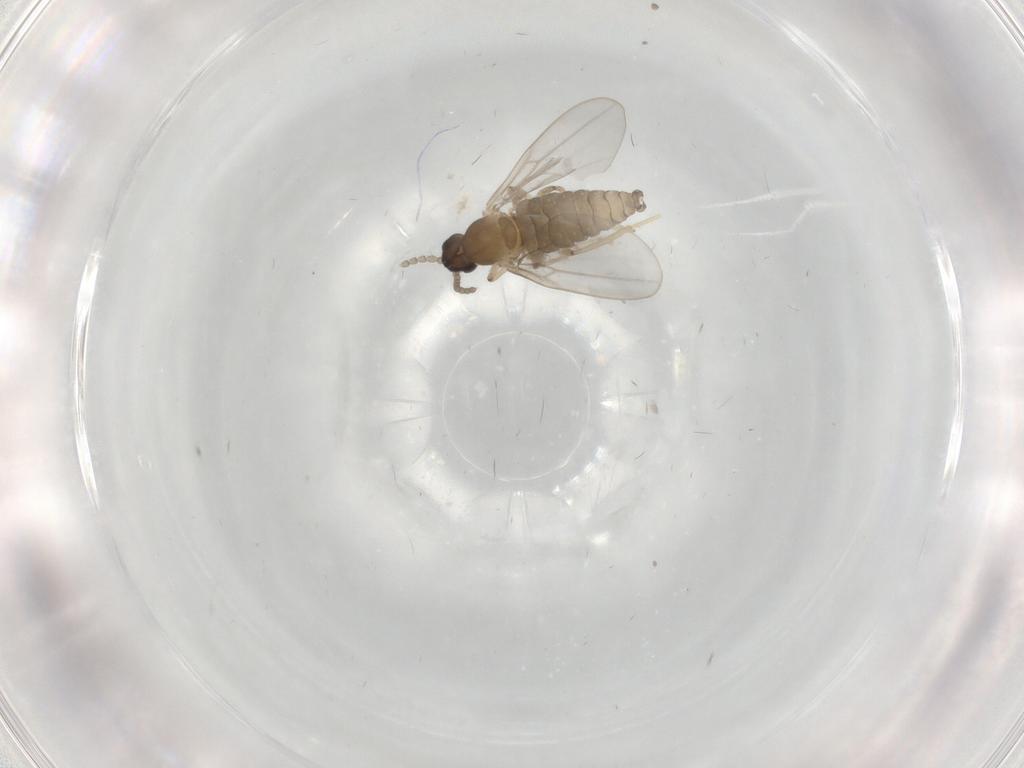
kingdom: Animalia
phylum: Arthropoda
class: Insecta
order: Diptera
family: Cecidomyiidae
